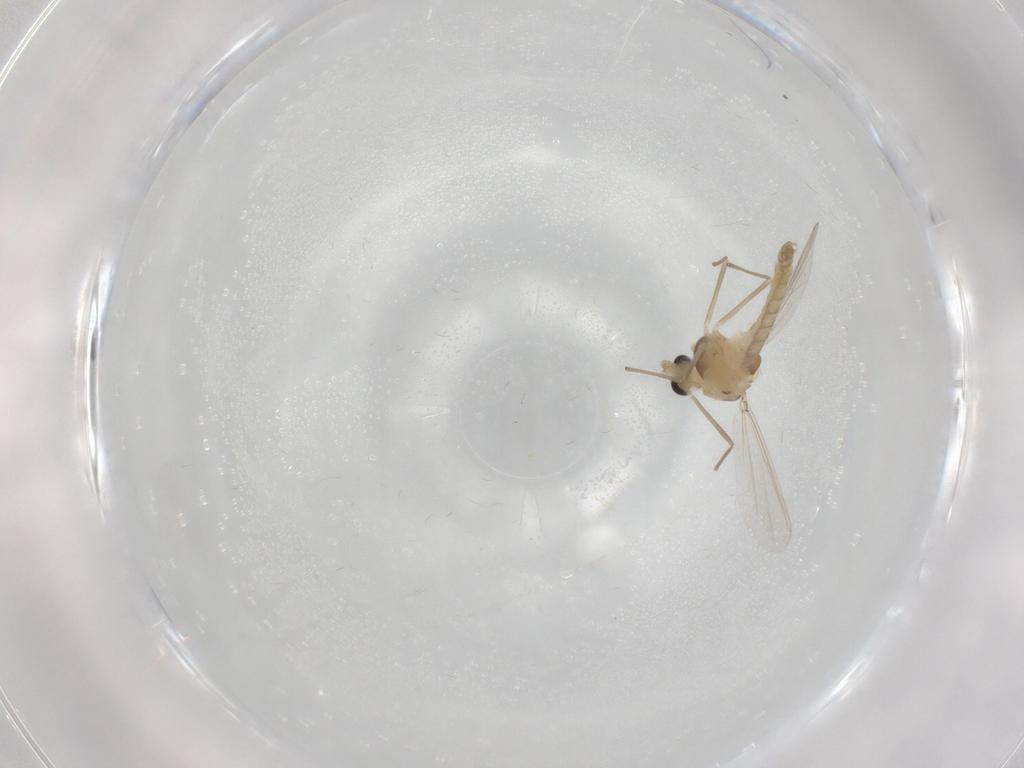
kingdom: Animalia
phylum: Arthropoda
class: Insecta
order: Diptera
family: Chironomidae
